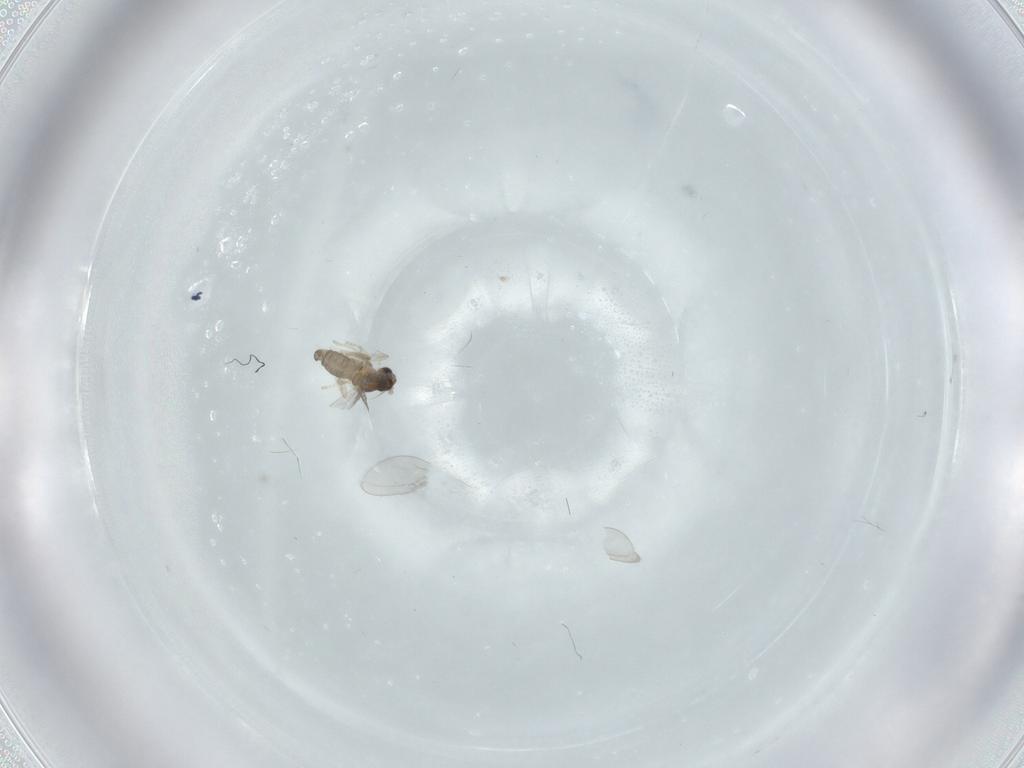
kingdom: Animalia
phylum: Arthropoda
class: Insecta
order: Diptera
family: Cecidomyiidae
